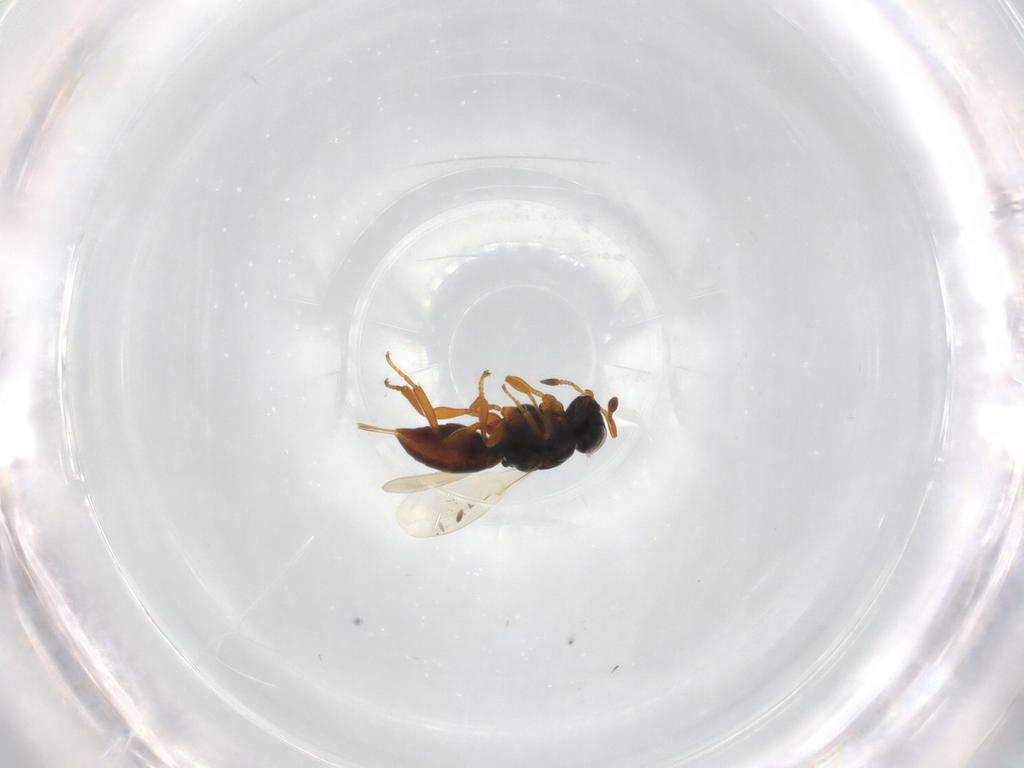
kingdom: Animalia
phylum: Arthropoda
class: Insecta
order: Hymenoptera
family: Platygastridae
